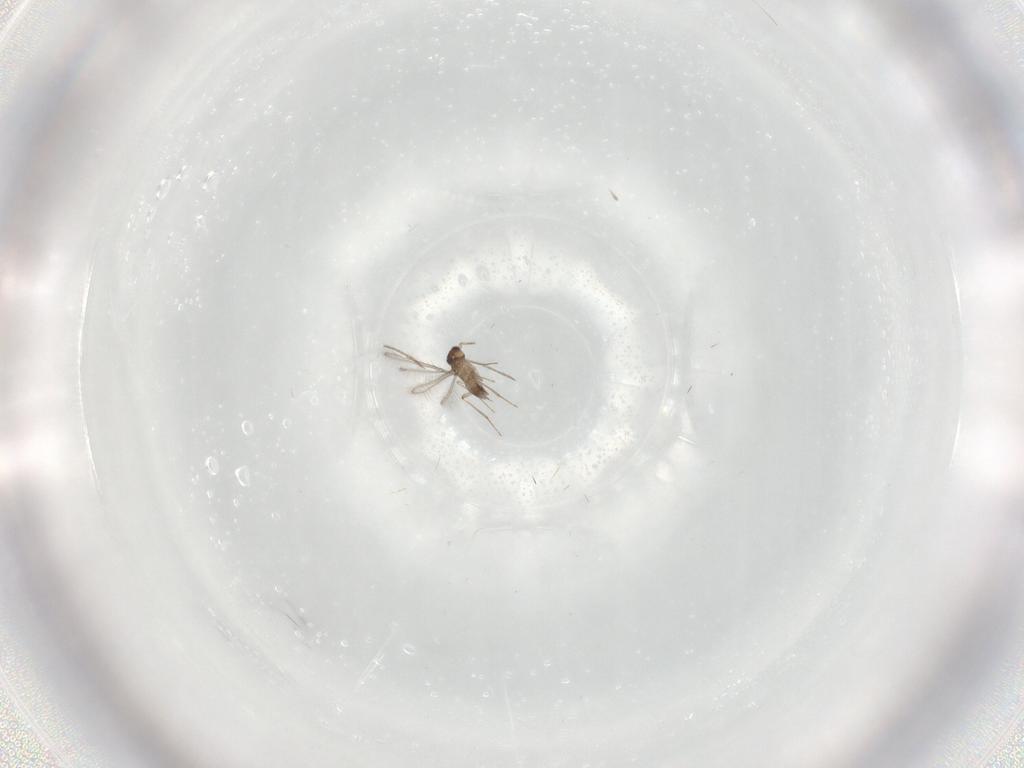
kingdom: Animalia
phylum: Arthropoda
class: Insecta
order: Hymenoptera
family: Mymaridae
